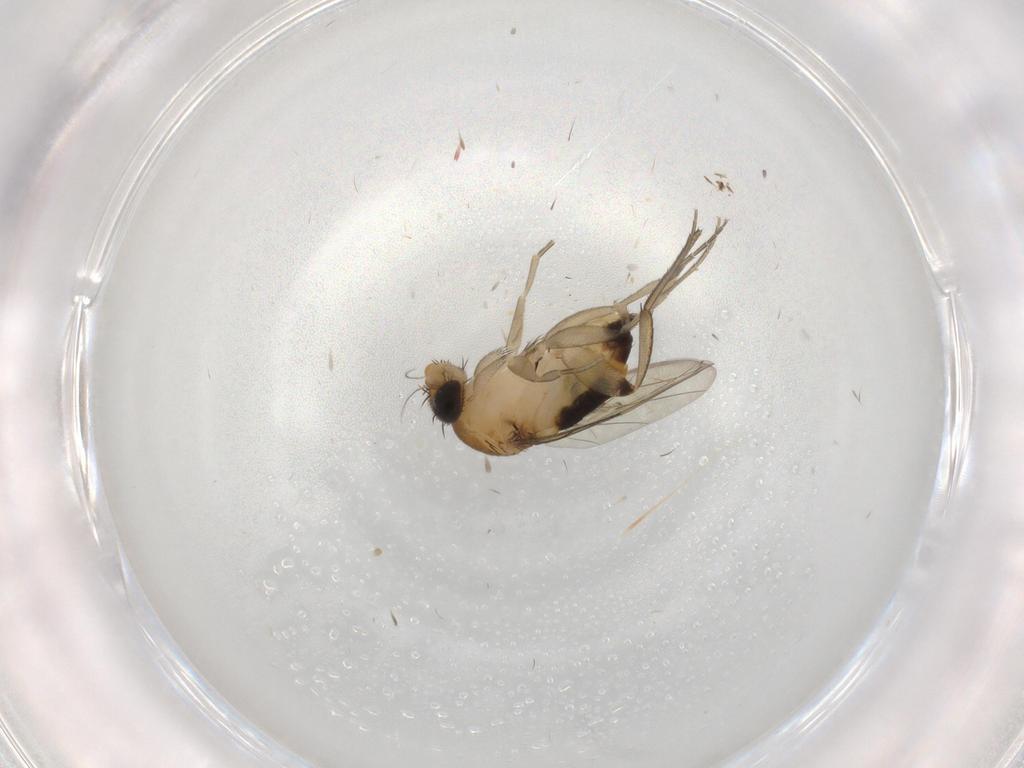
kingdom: Animalia
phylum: Arthropoda
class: Insecta
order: Diptera
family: Phoridae
